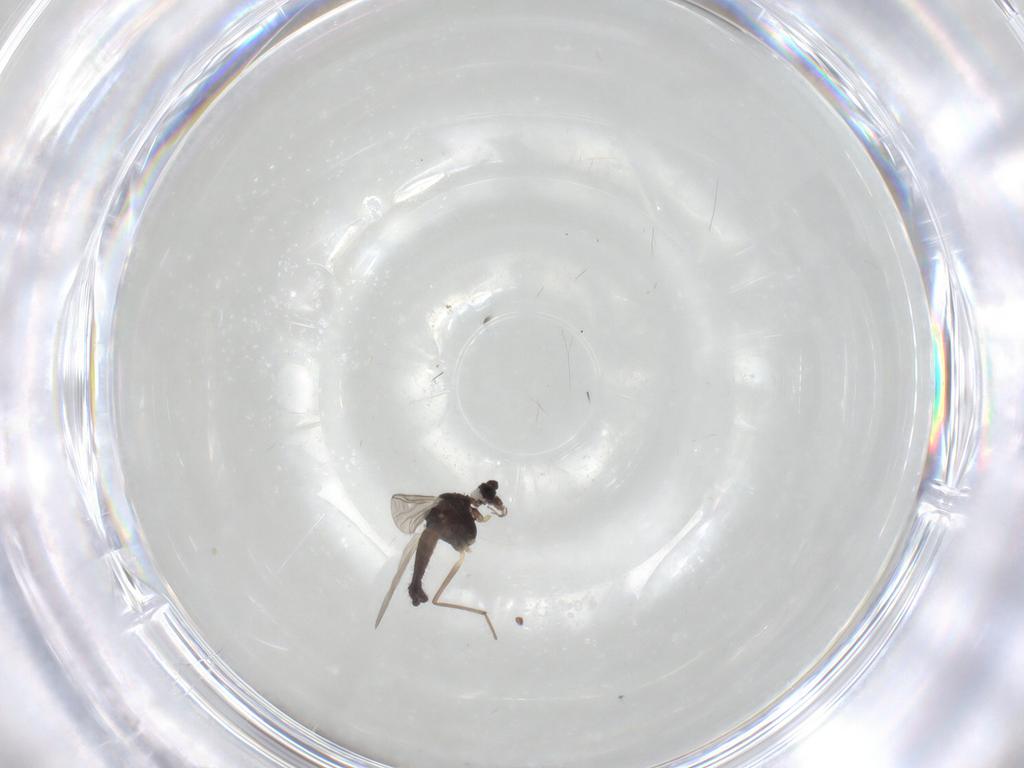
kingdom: Animalia
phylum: Arthropoda
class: Insecta
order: Diptera
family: Chironomidae
